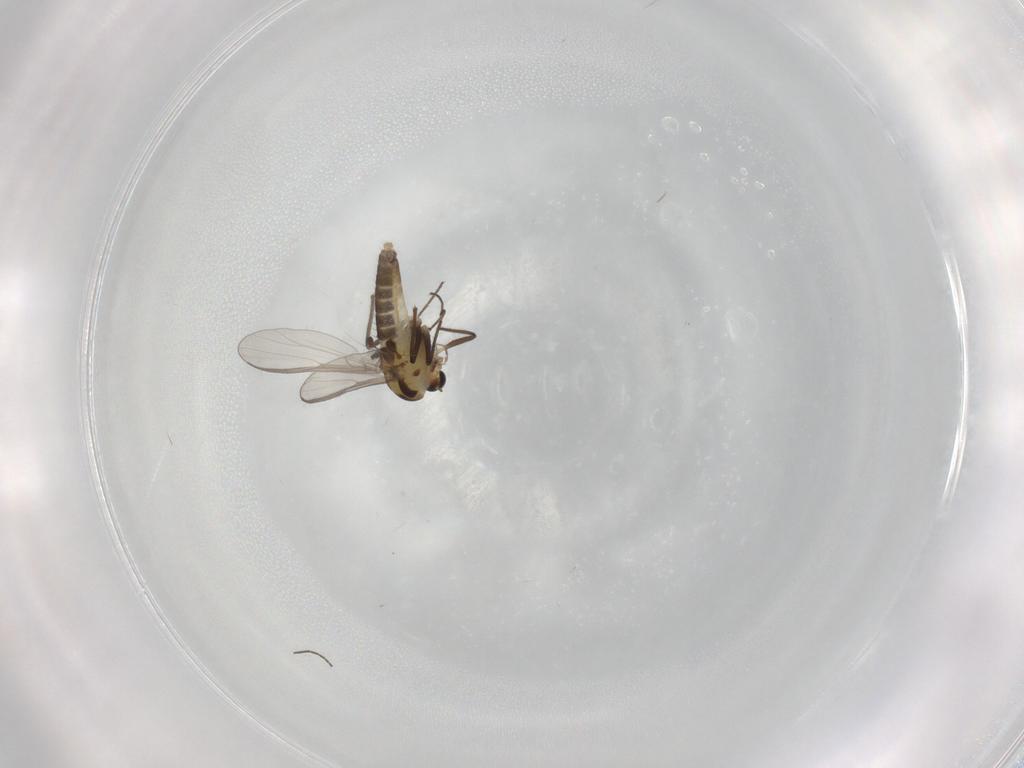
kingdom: Animalia
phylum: Arthropoda
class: Insecta
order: Diptera
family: Chironomidae
